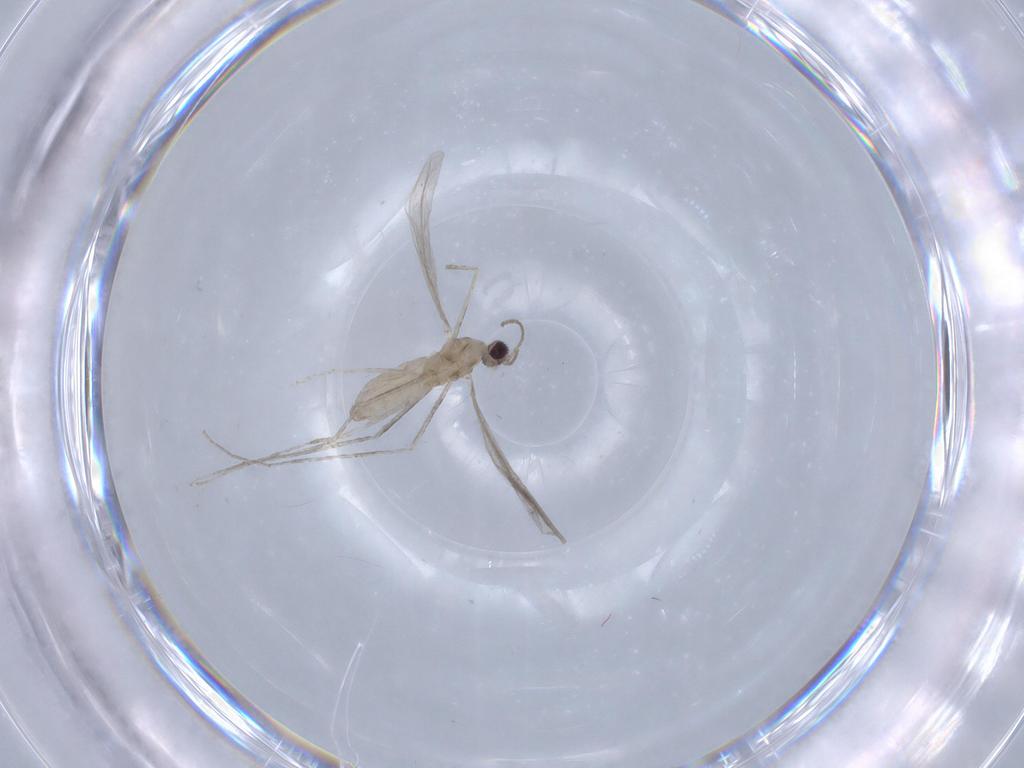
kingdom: Animalia
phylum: Arthropoda
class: Insecta
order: Diptera
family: Cecidomyiidae
